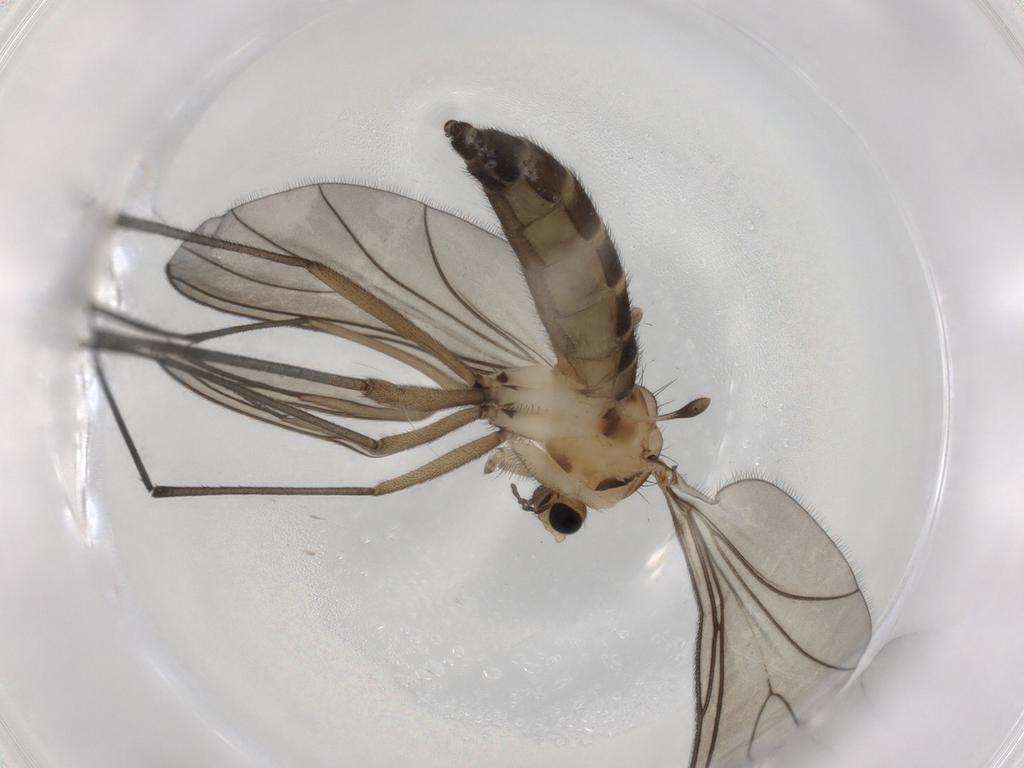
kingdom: Animalia
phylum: Arthropoda
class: Insecta
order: Diptera
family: Sciaridae
